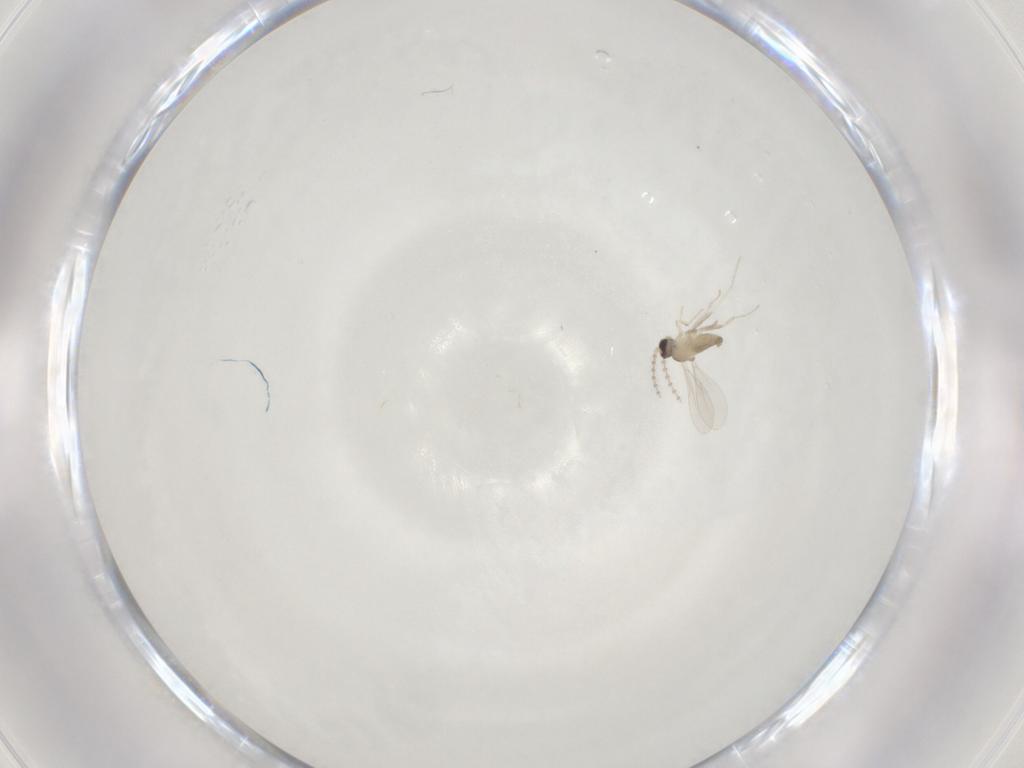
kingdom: Animalia
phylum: Arthropoda
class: Insecta
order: Diptera
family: Cecidomyiidae
